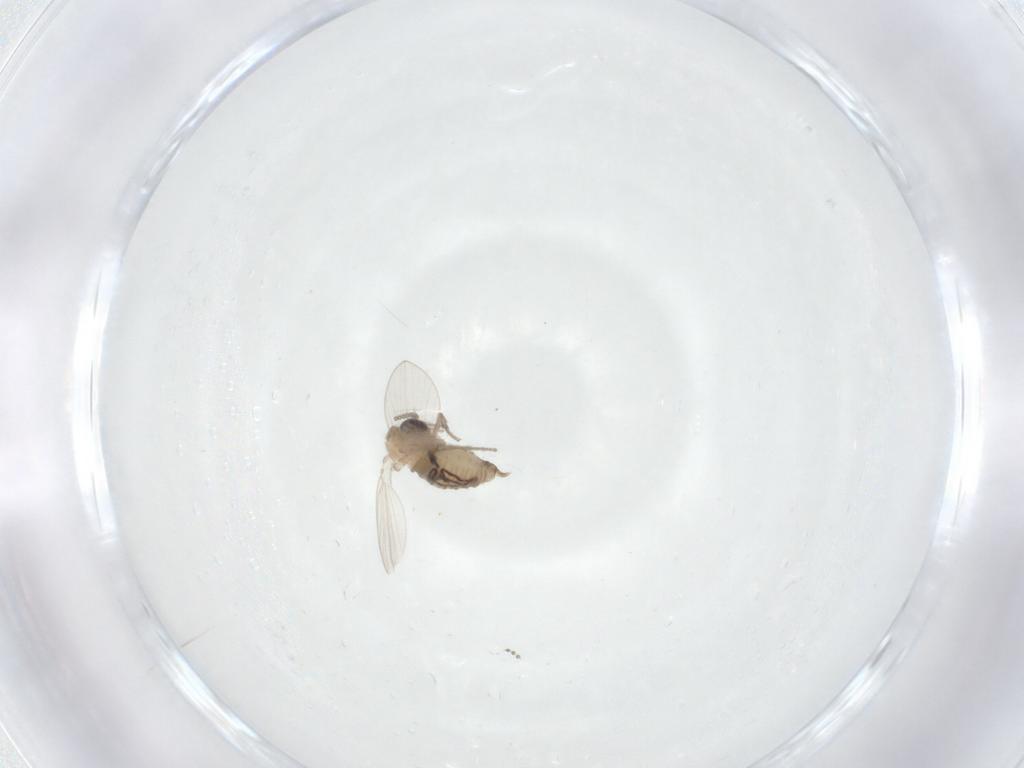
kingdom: Animalia
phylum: Arthropoda
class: Insecta
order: Diptera
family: Psychodidae
